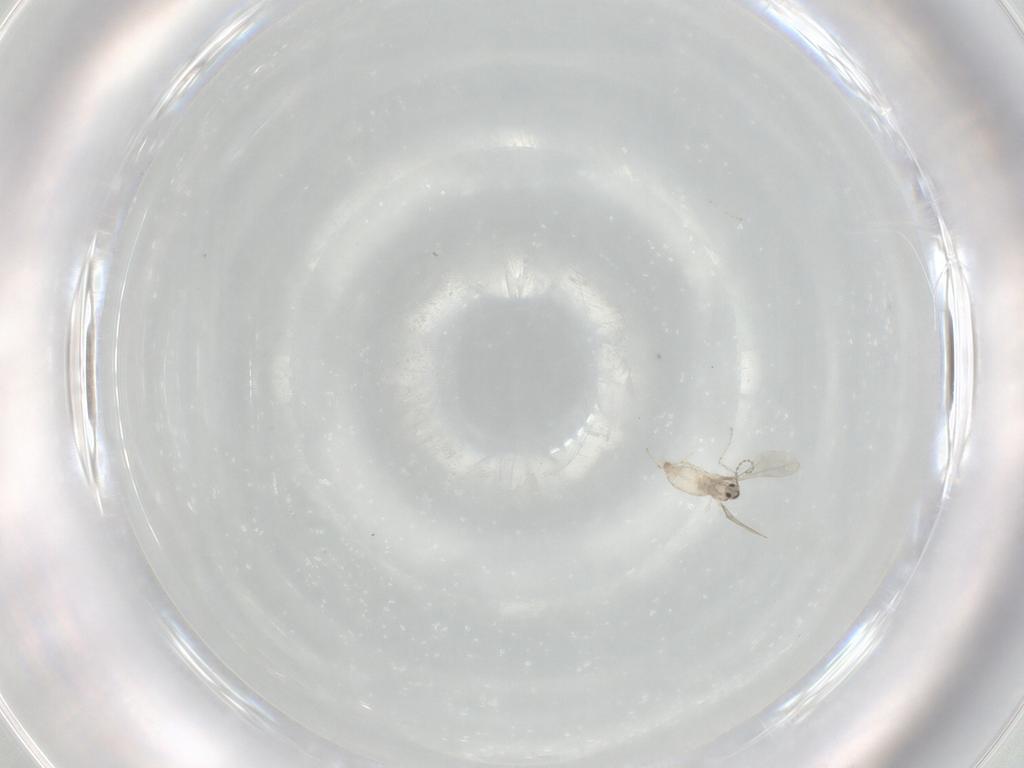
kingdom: Animalia
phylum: Arthropoda
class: Insecta
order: Diptera
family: Cecidomyiidae
